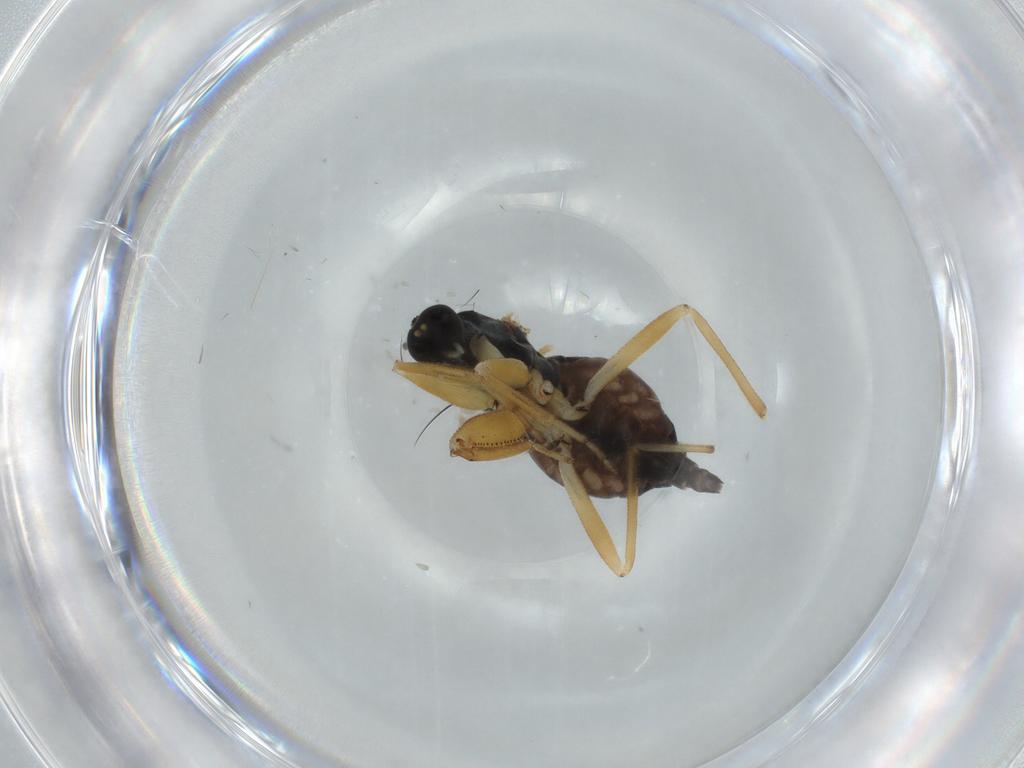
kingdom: Animalia
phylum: Arthropoda
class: Insecta
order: Diptera
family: Sciaridae
